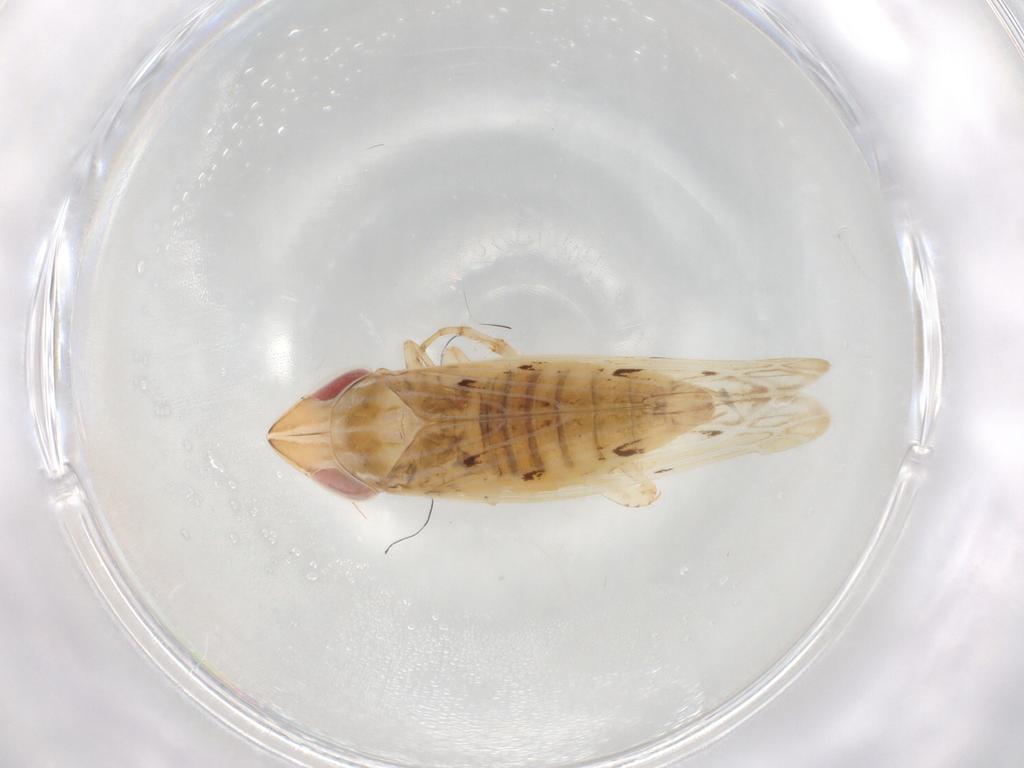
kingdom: Animalia
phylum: Arthropoda
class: Insecta
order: Hemiptera
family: Cicadellidae
